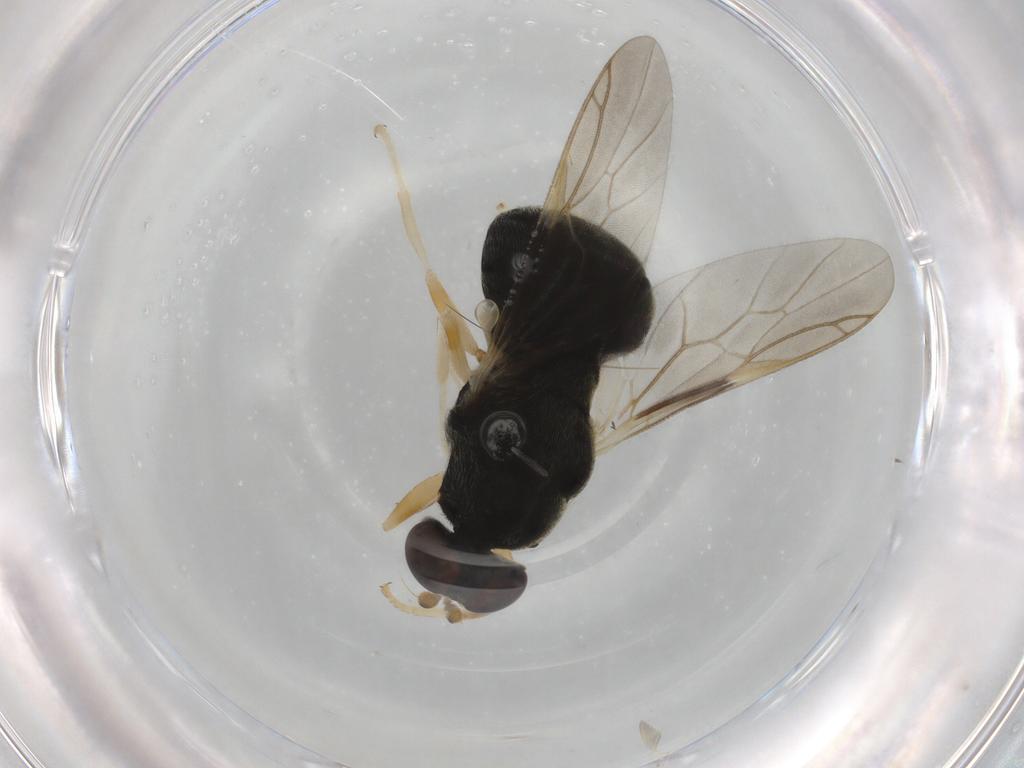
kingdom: Animalia
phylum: Arthropoda
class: Insecta
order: Diptera
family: Stratiomyidae
